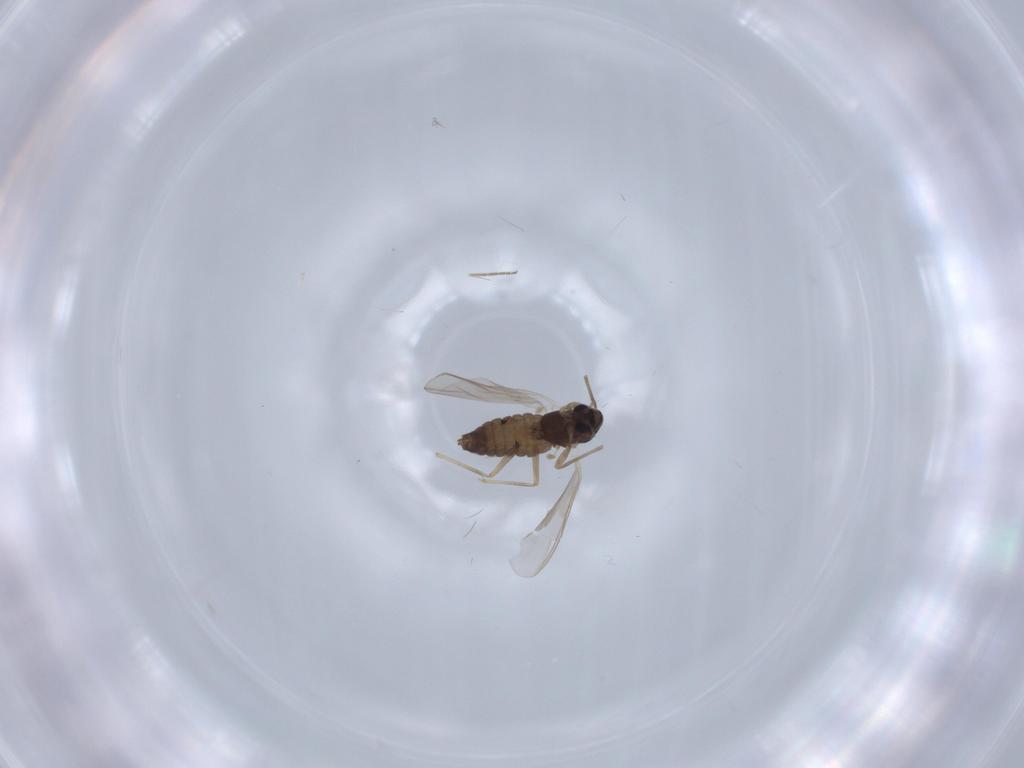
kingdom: Animalia
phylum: Arthropoda
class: Insecta
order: Diptera
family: Chironomidae
